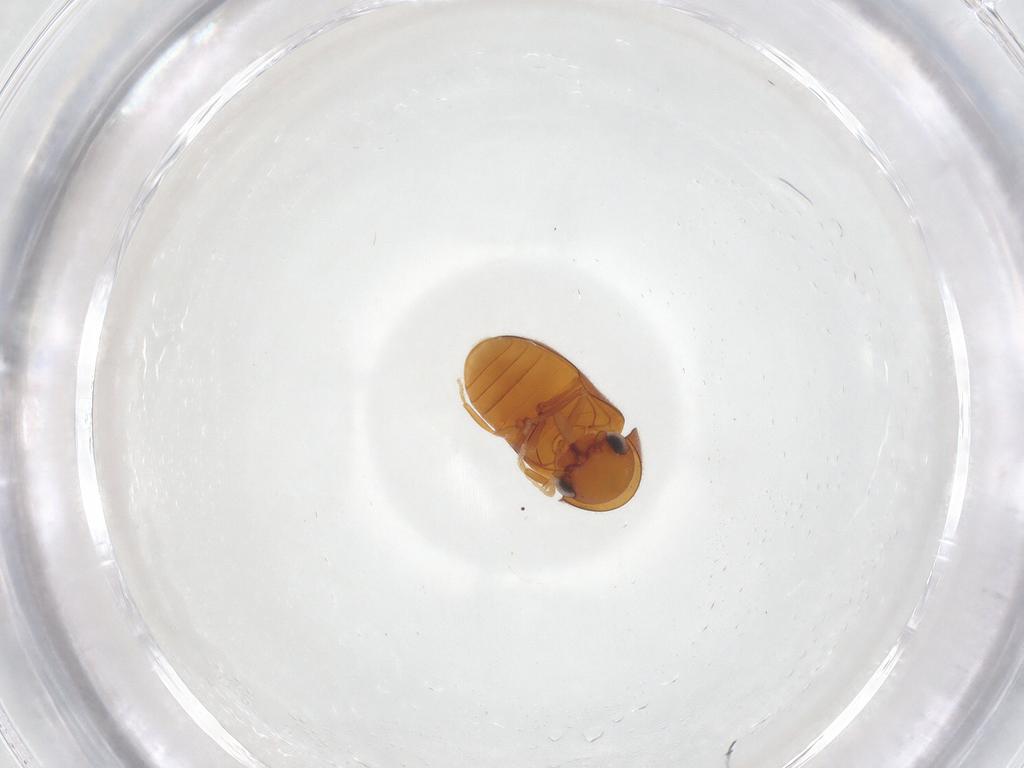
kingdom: Animalia
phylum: Arthropoda
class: Insecta
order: Coleoptera
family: Ptinidae
